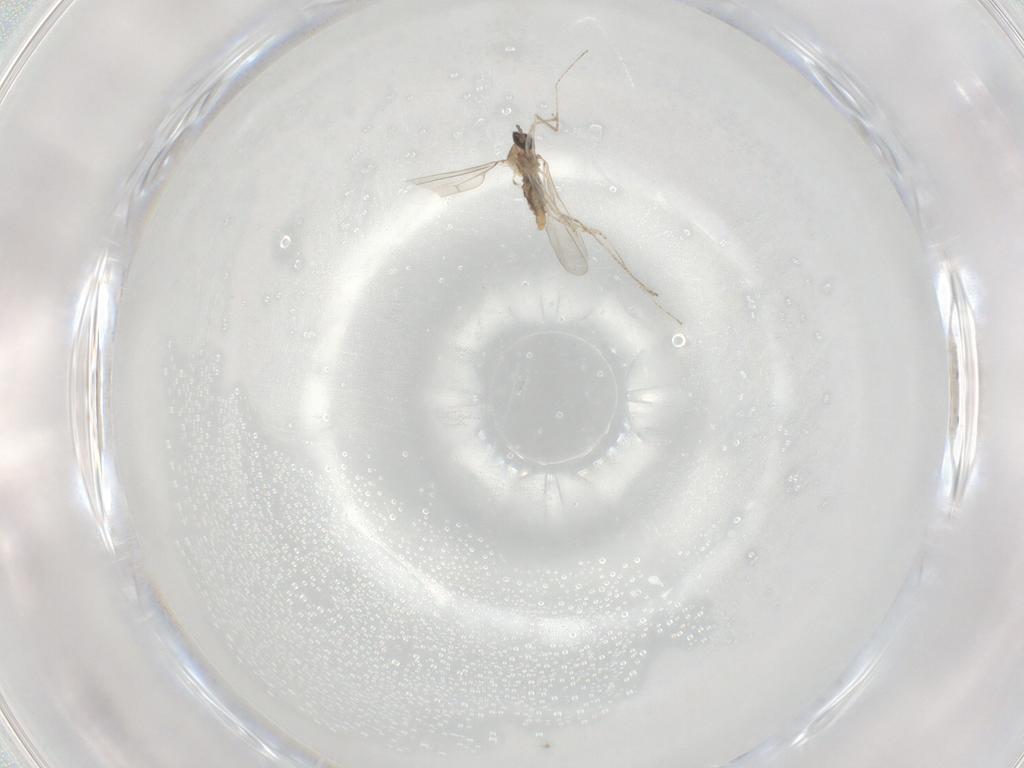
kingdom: Animalia
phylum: Arthropoda
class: Insecta
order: Diptera
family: Cecidomyiidae
